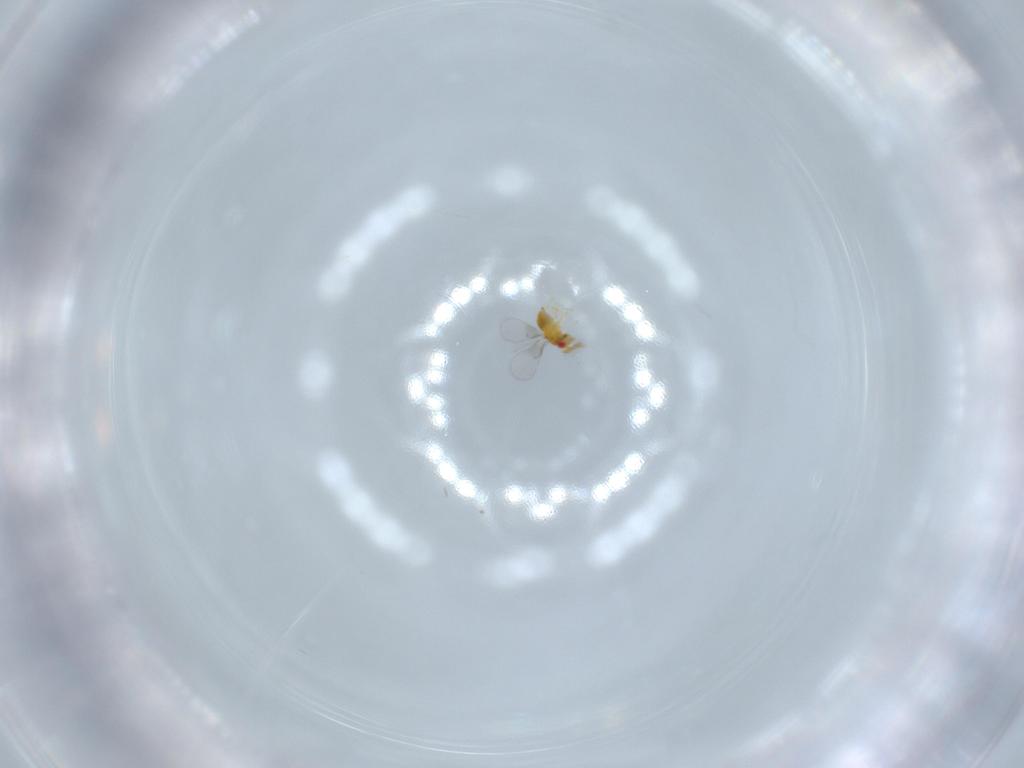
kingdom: Animalia
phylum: Arthropoda
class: Insecta
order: Hymenoptera
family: Trichogrammatidae
